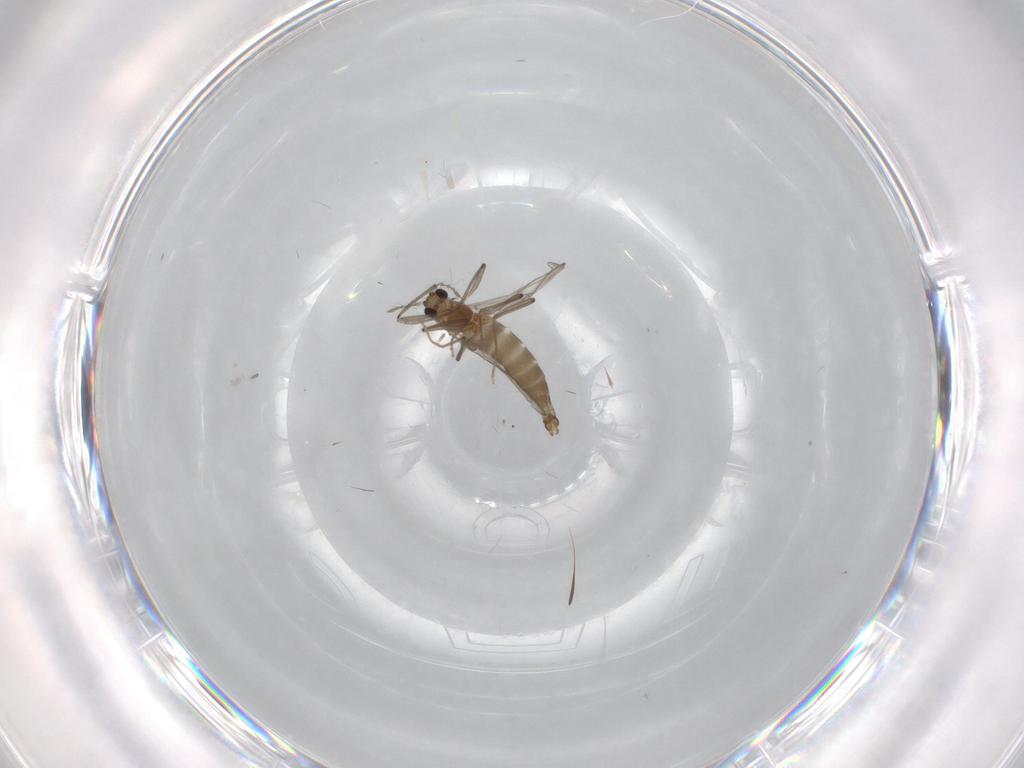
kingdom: Animalia
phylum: Arthropoda
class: Insecta
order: Diptera
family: Chironomidae
